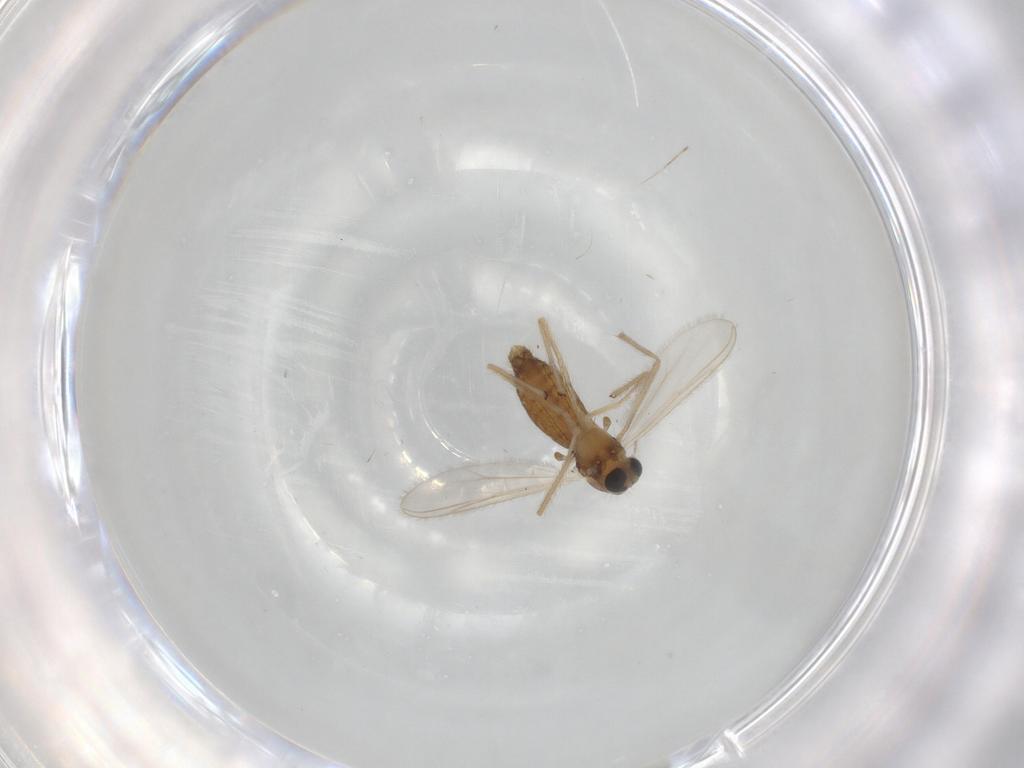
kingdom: Animalia
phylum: Arthropoda
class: Insecta
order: Diptera
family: Chironomidae
